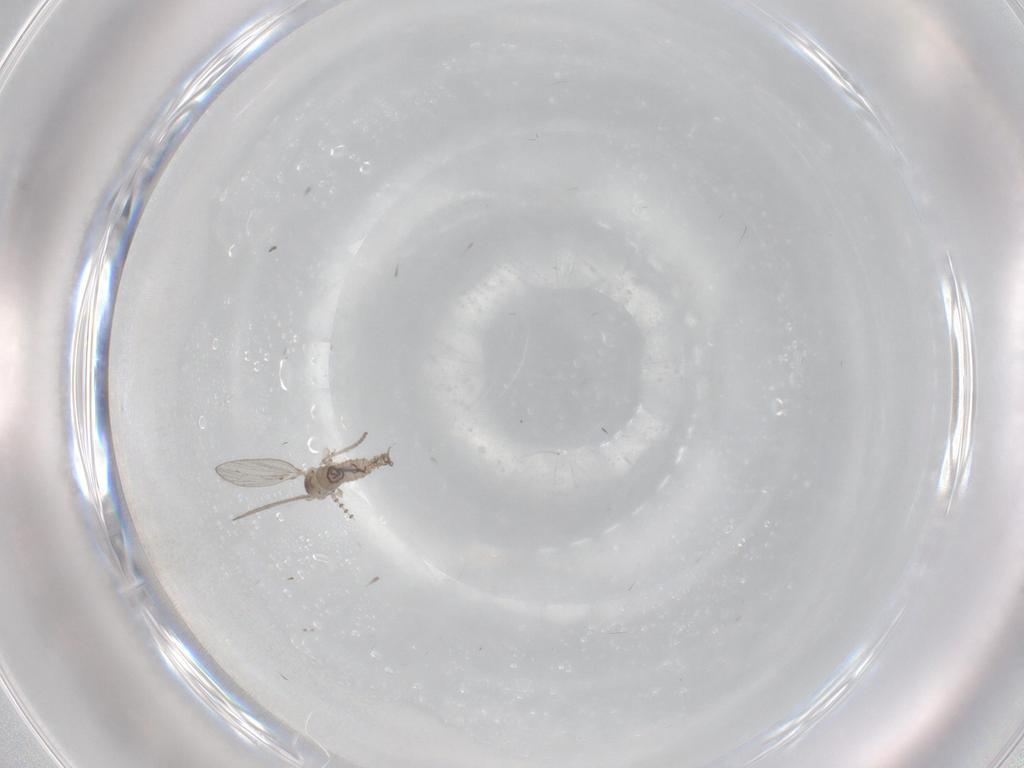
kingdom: Animalia
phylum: Arthropoda
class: Insecta
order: Diptera
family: Psychodidae
